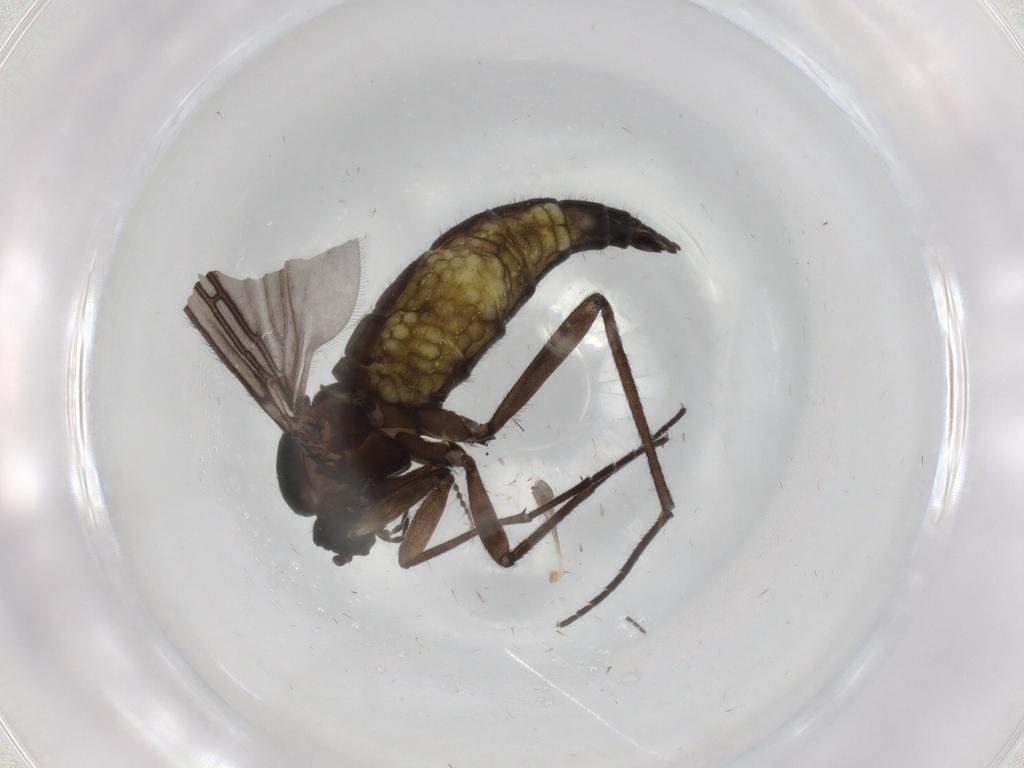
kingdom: Animalia
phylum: Arthropoda
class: Insecta
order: Diptera
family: Sciaridae
